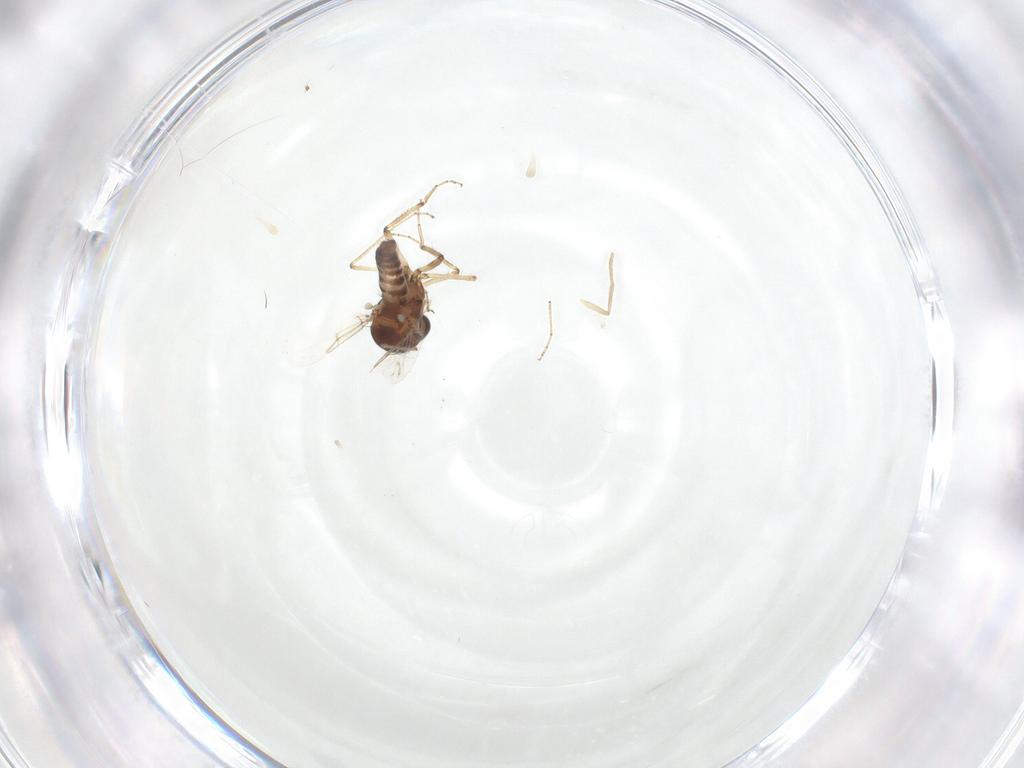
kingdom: Animalia
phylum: Arthropoda
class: Insecta
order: Diptera
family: Ceratopogonidae
